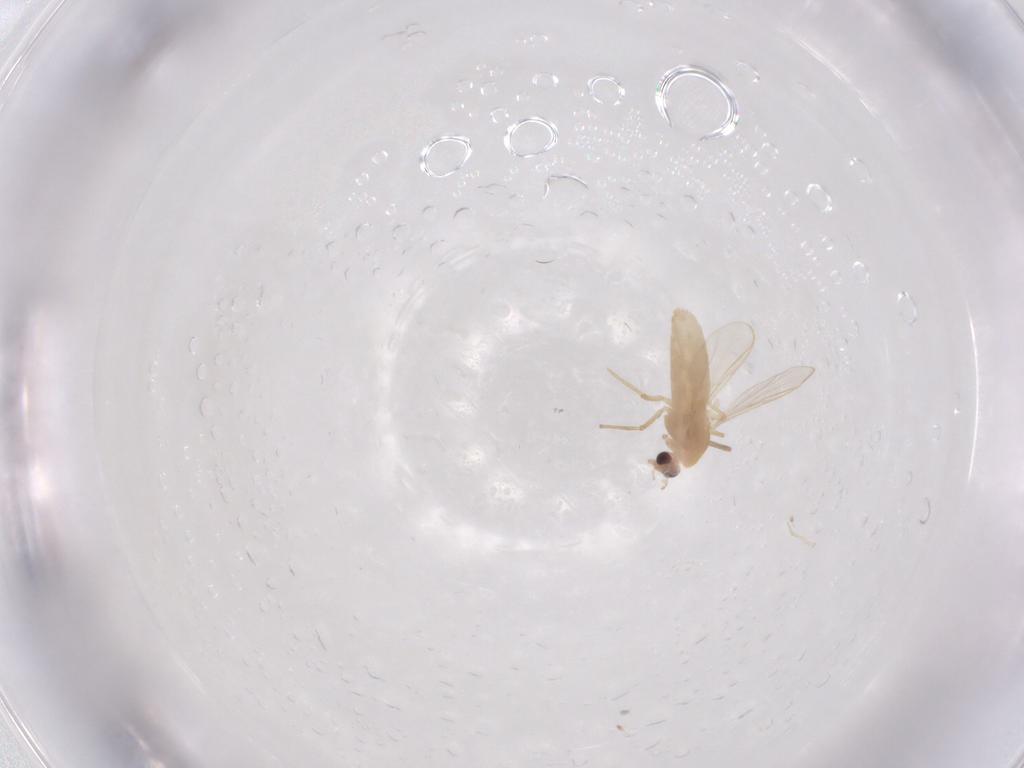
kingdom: Animalia
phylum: Arthropoda
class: Insecta
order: Diptera
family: Chironomidae
